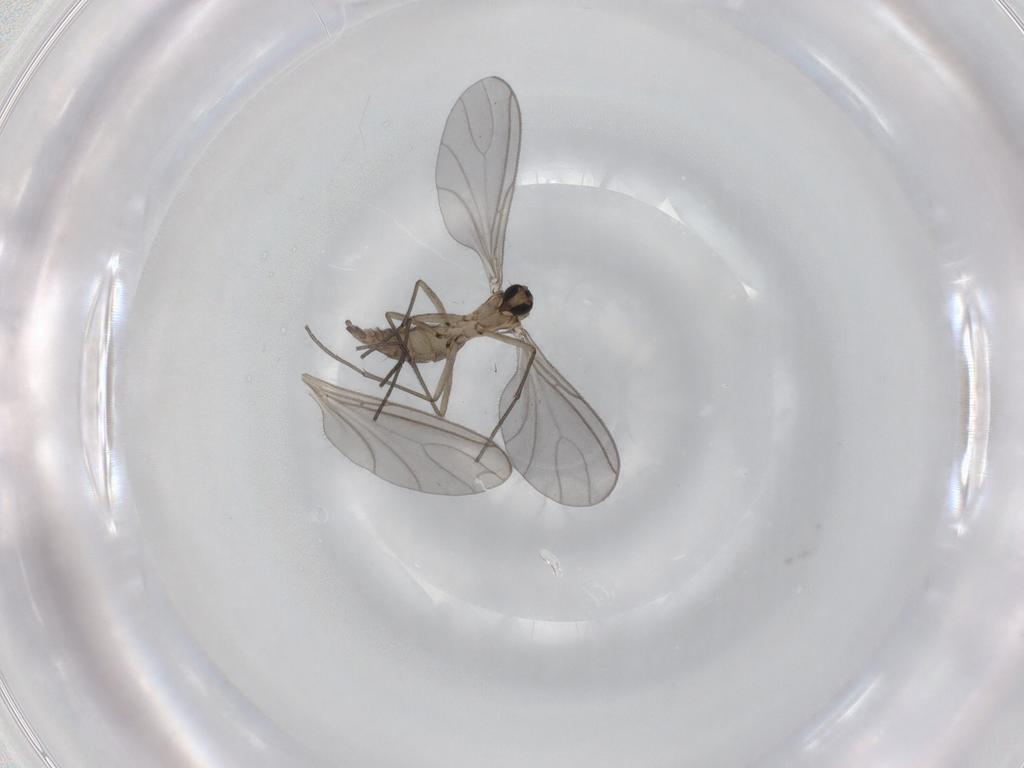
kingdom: Animalia
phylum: Arthropoda
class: Insecta
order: Diptera
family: Sciaridae
